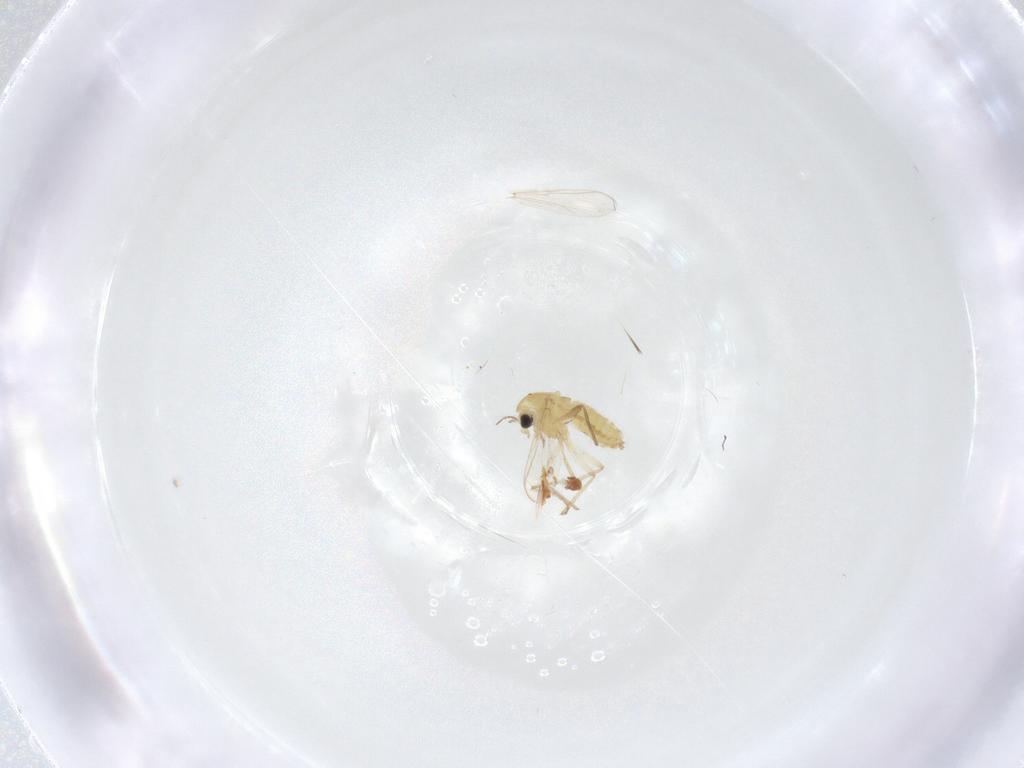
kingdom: Animalia
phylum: Arthropoda
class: Insecta
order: Diptera
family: Chironomidae
